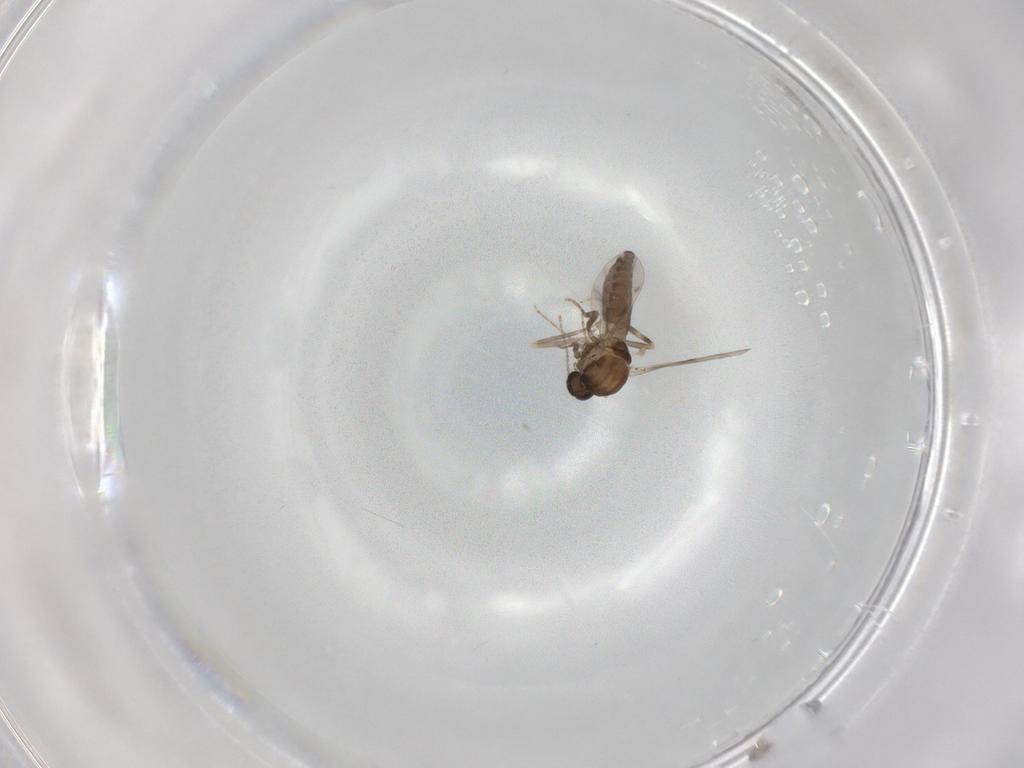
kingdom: Animalia
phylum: Arthropoda
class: Insecta
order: Diptera
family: Ceratopogonidae
